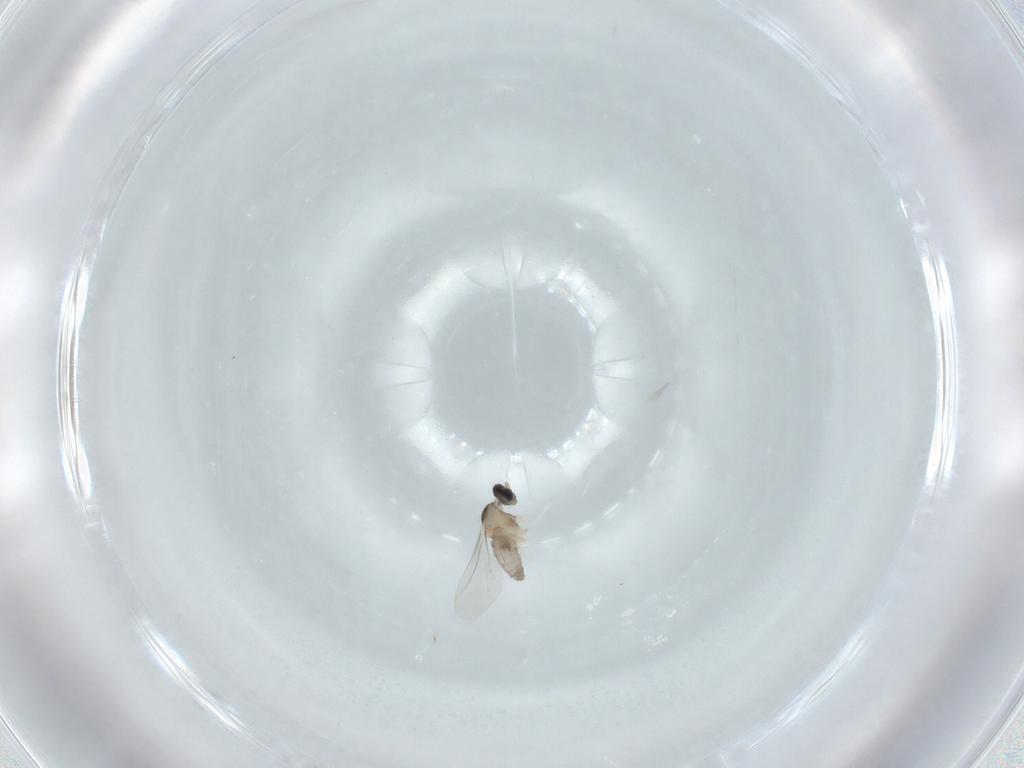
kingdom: Animalia
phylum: Arthropoda
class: Insecta
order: Diptera
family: Cecidomyiidae
